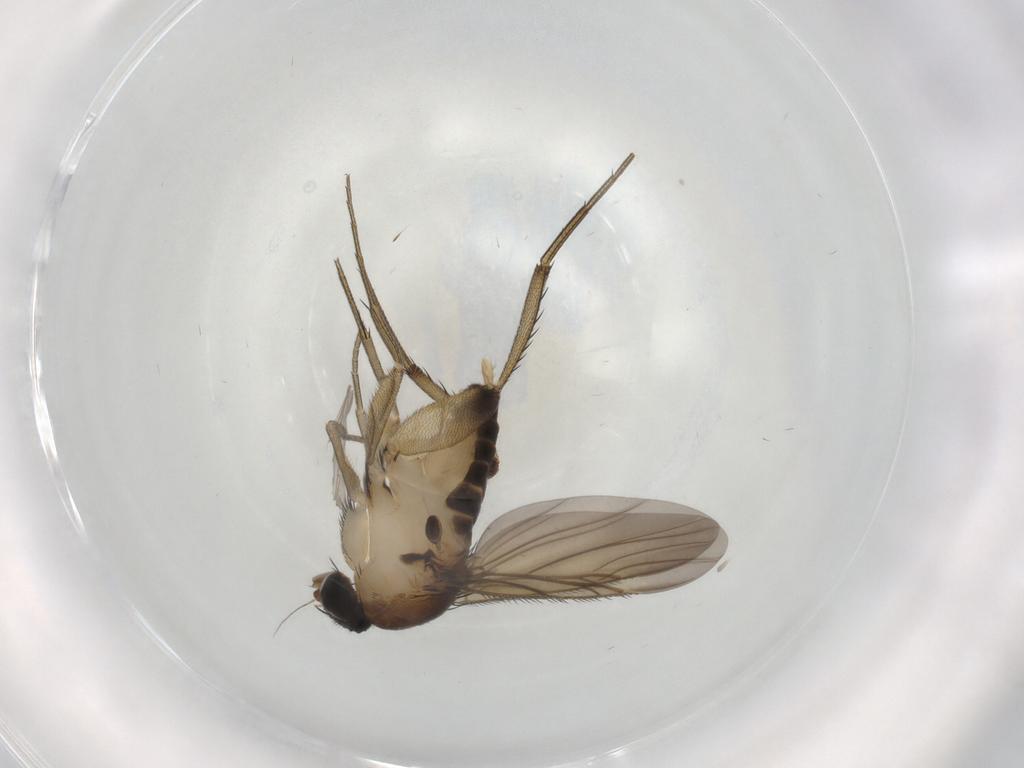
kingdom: Animalia
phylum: Arthropoda
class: Insecta
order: Diptera
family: Phoridae
